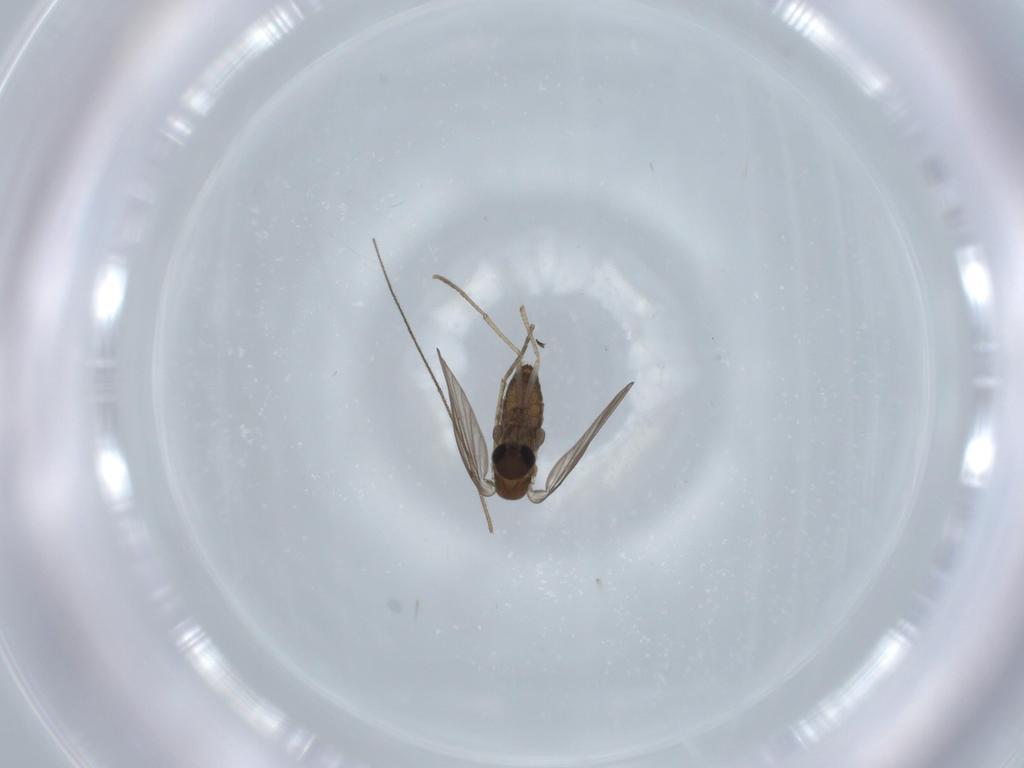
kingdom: Animalia
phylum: Arthropoda
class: Insecta
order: Diptera
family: Psychodidae
